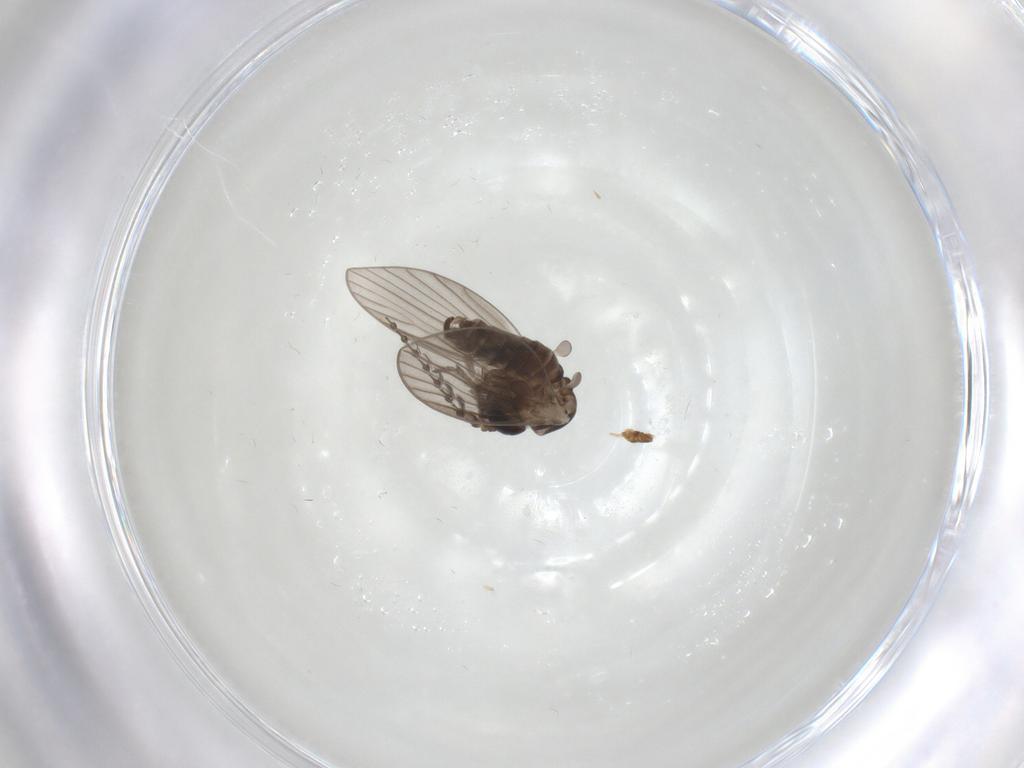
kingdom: Animalia
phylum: Arthropoda
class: Insecta
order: Diptera
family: Psychodidae
